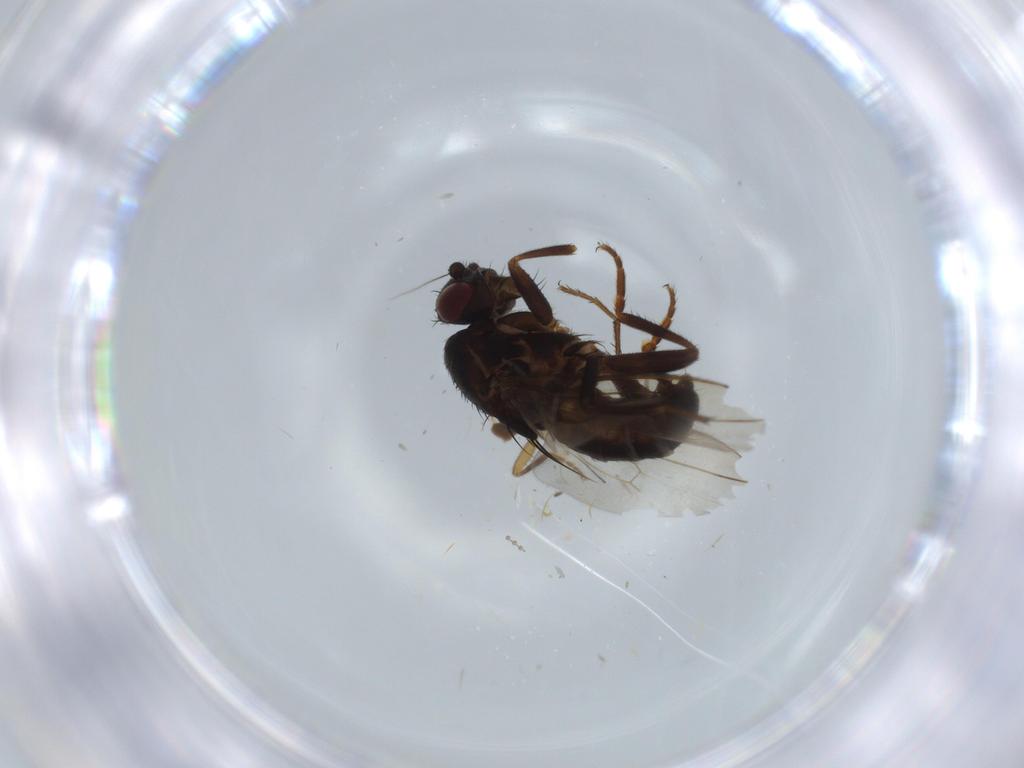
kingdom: Animalia
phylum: Arthropoda
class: Insecta
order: Diptera
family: Sphaeroceridae
